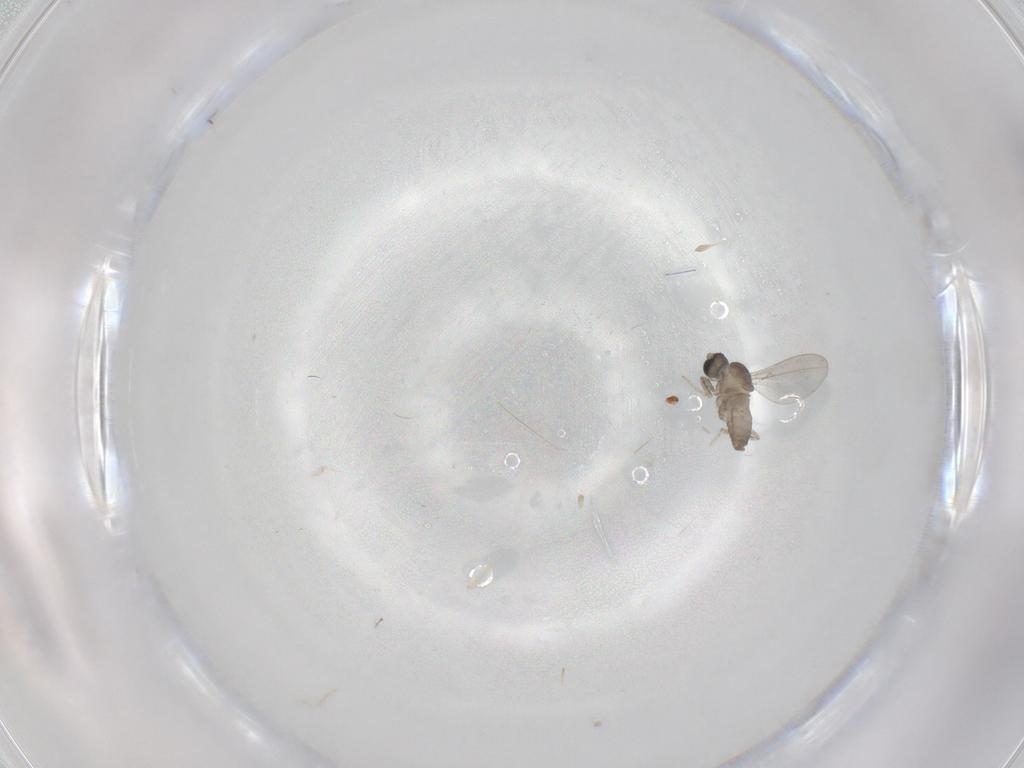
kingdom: Animalia
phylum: Arthropoda
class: Insecta
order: Diptera
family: Cecidomyiidae
